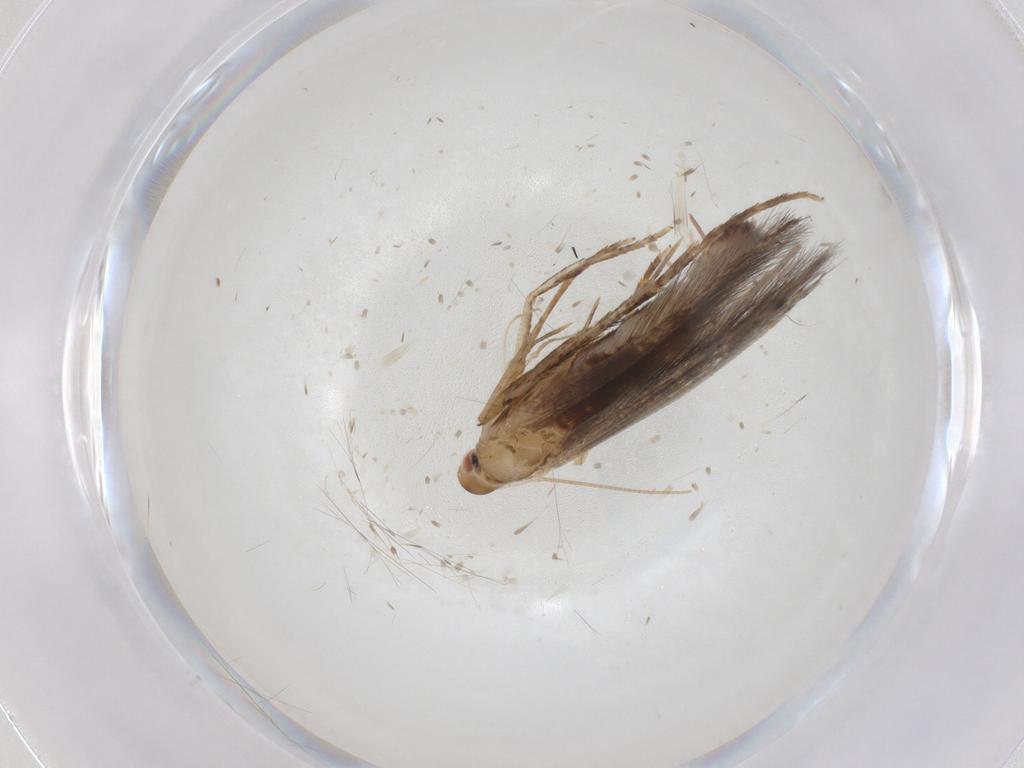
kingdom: Animalia
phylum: Arthropoda
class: Insecta
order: Lepidoptera
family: Cosmopterigidae
